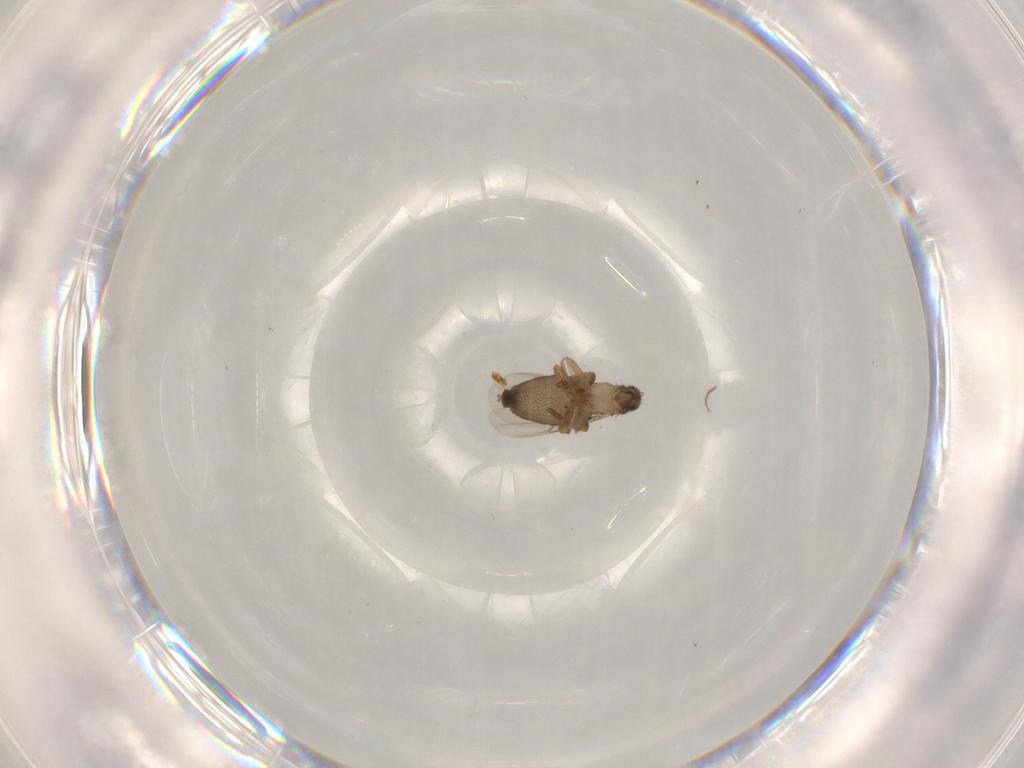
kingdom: Animalia
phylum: Arthropoda
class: Insecta
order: Diptera
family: Phoridae
